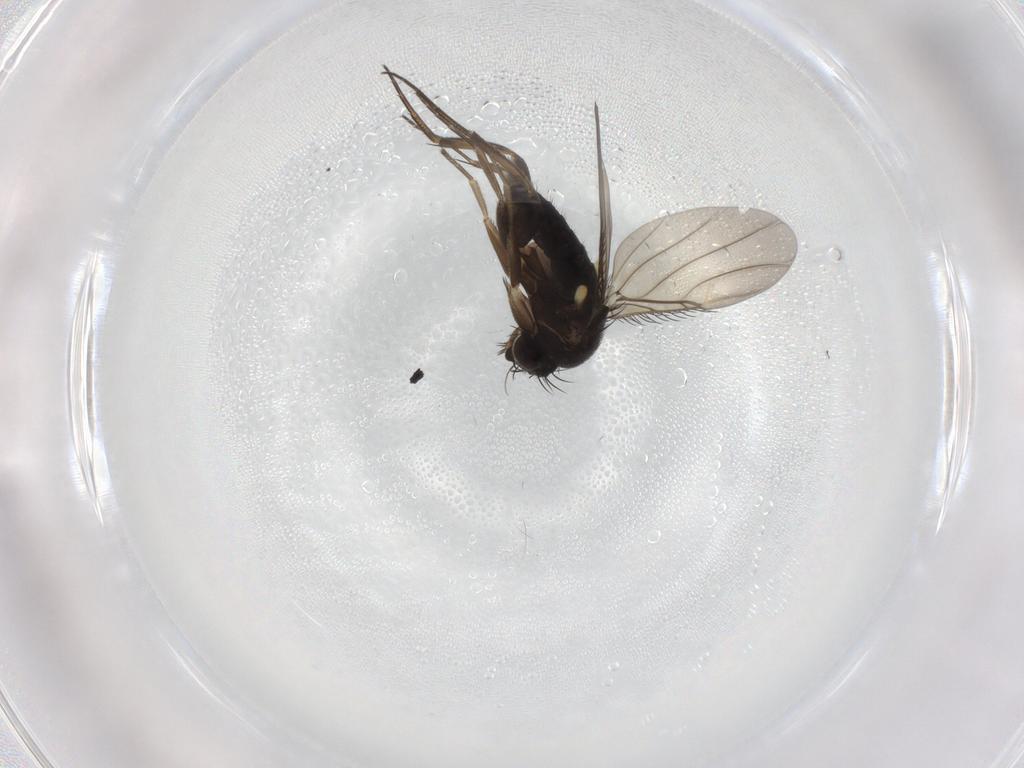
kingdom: Animalia
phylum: Arthropoda
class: Insecta
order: Diptera
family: Phoridae
